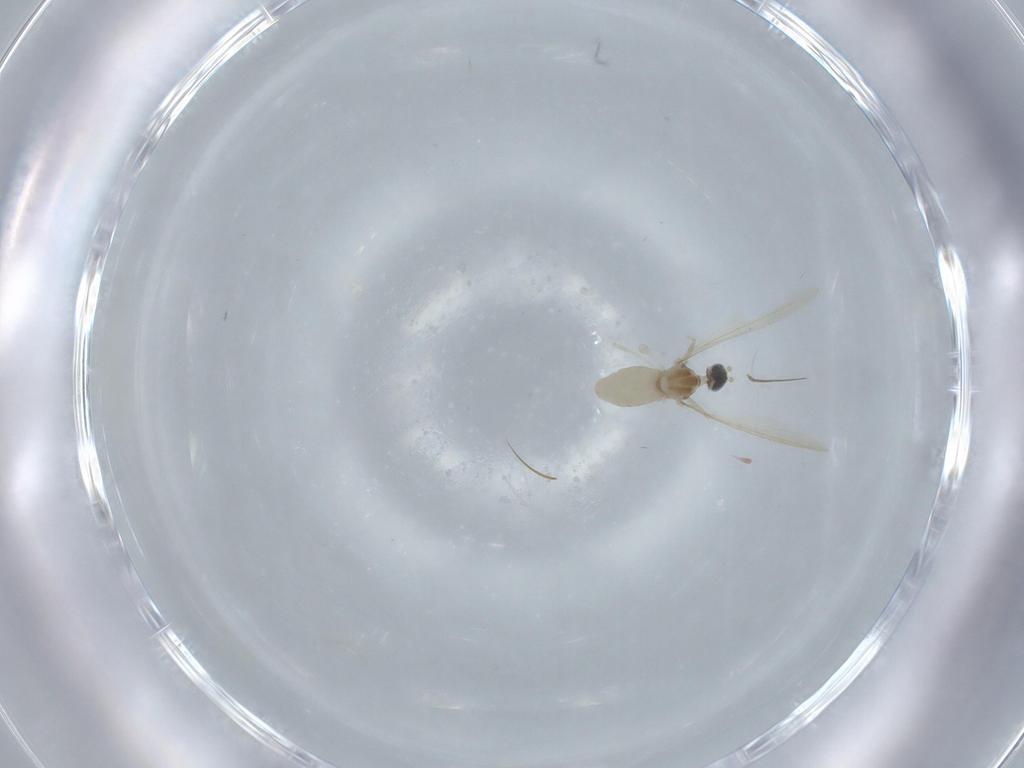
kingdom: Animalia
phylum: Arthropoda
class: Insecta
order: Diptera
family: Cecidomyiidae
